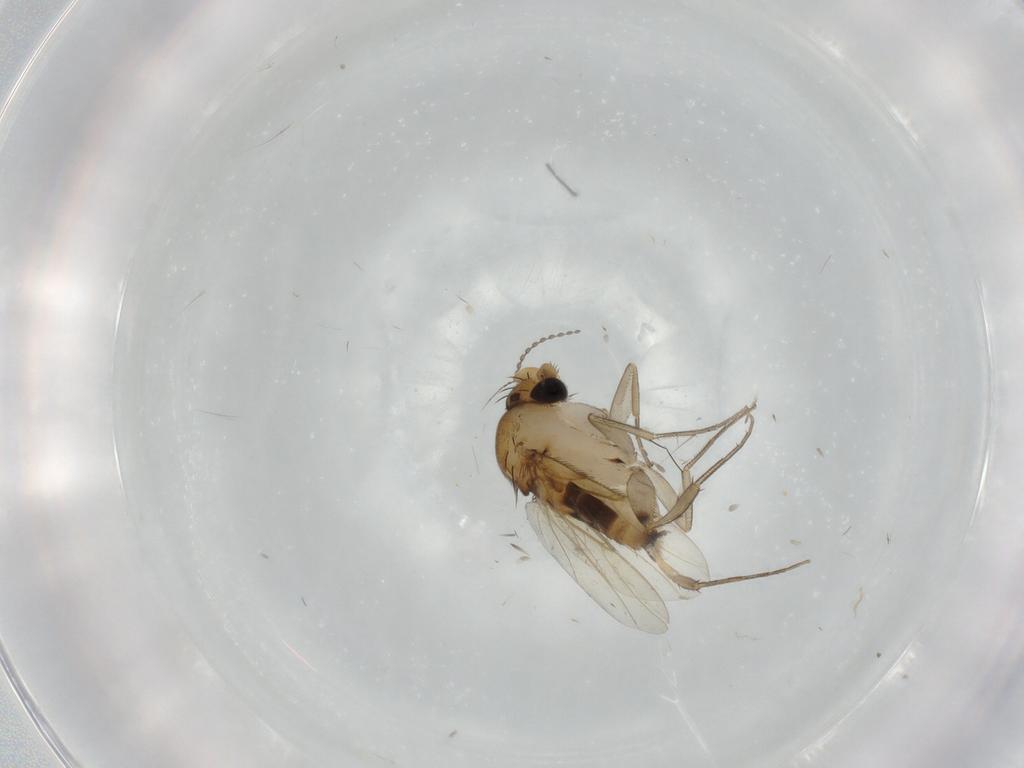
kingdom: Animalia
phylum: Arthropoda
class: Insecta
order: Diptera
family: Phoridae
